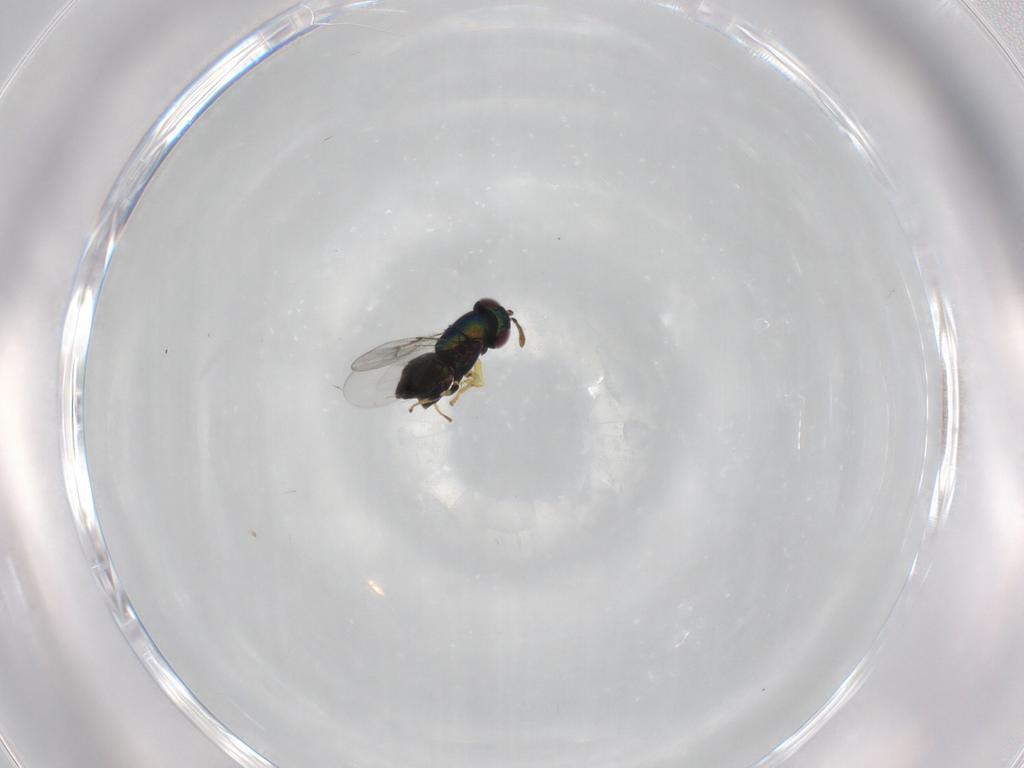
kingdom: Animalia
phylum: Arthropoda
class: Insecta
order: Hymenoptera
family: Encyrtidae
